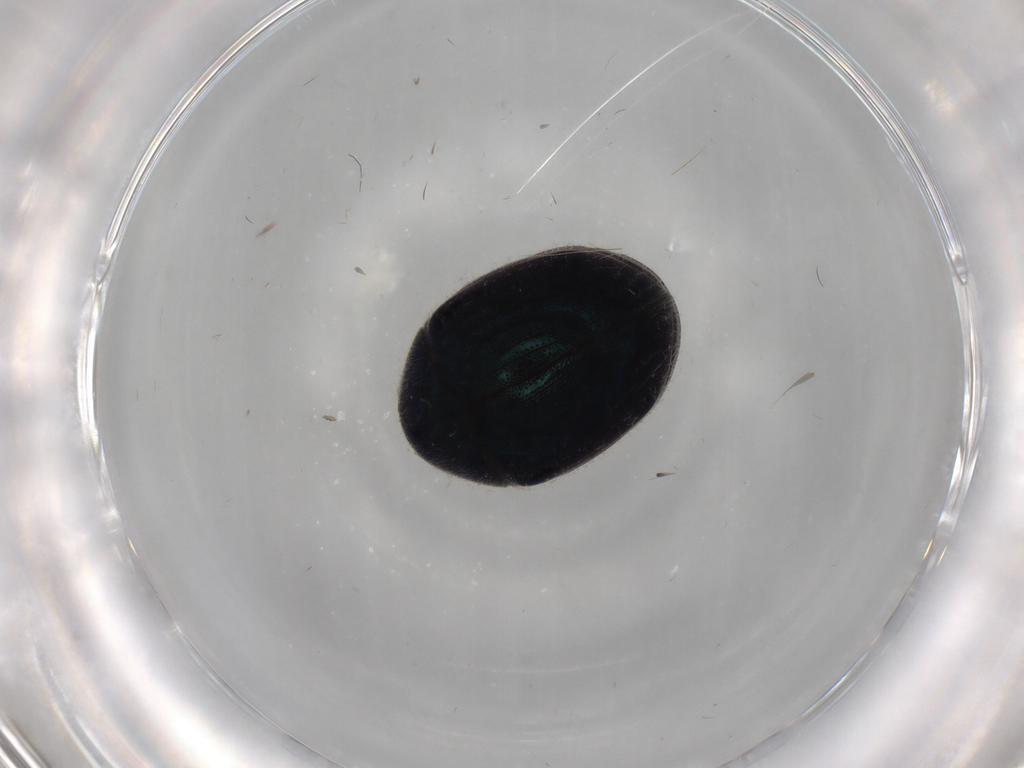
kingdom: Animalia
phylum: Arthropoda
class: Insecta
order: Coleoptera
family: Ptinidae
